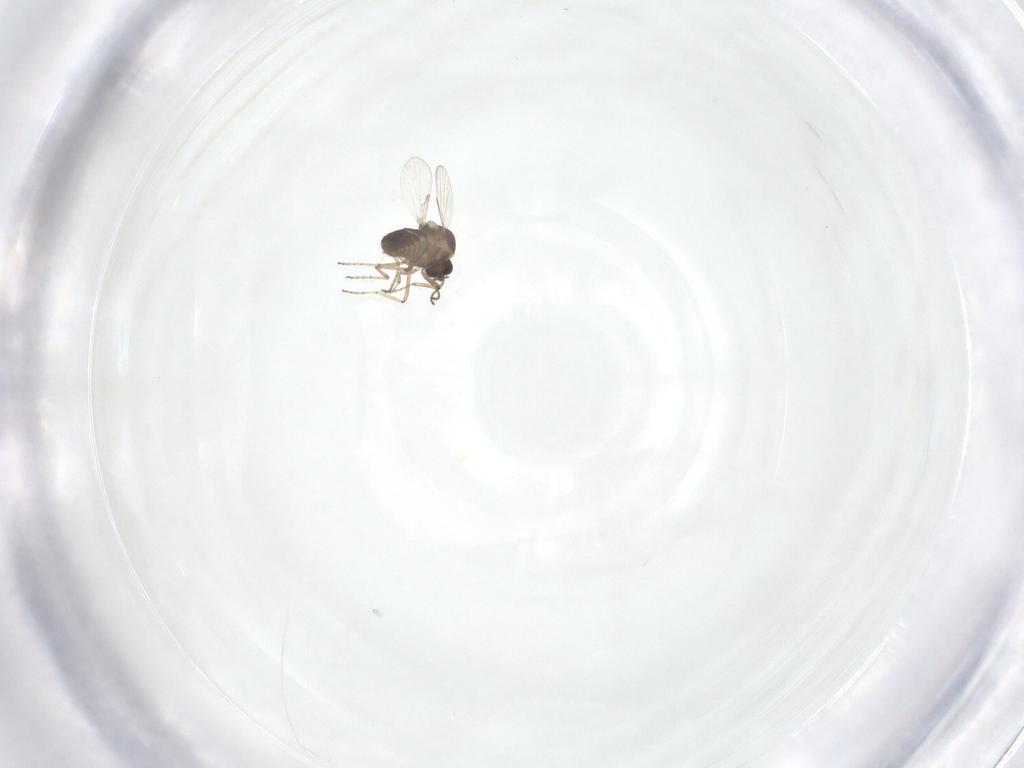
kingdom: Animalia
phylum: Arthropoda
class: Insecta
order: Diptera
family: Ceratopogonidae
